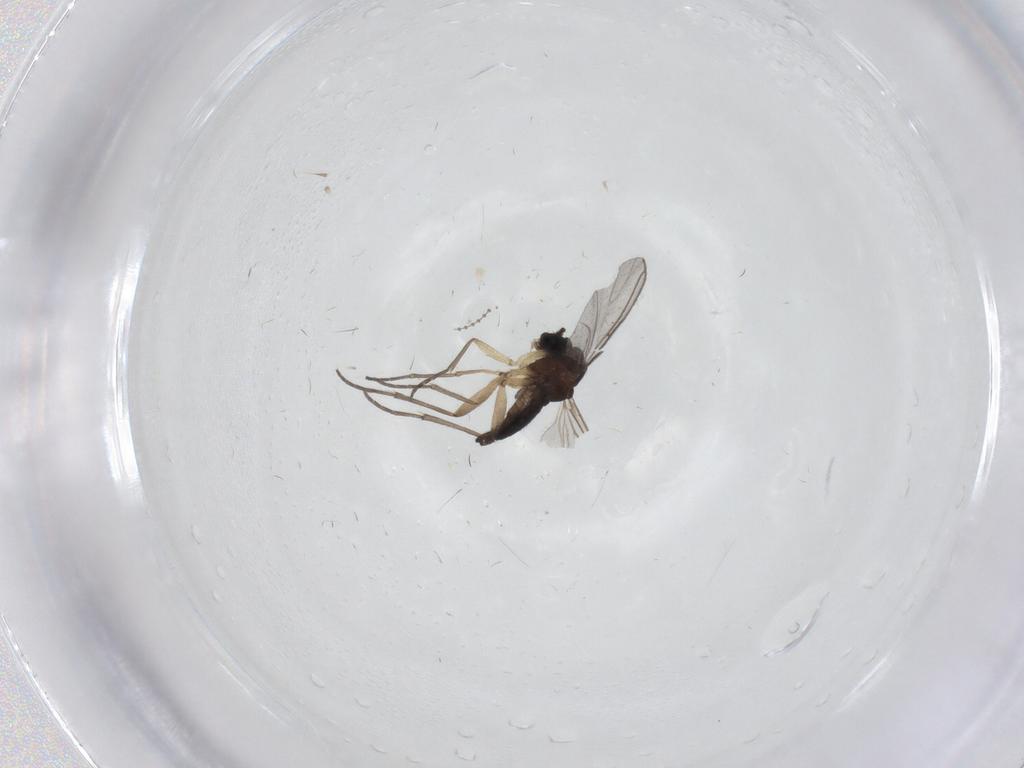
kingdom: Animalia
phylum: Arthropoda
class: Insecta
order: Diptera
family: Sciaridae
